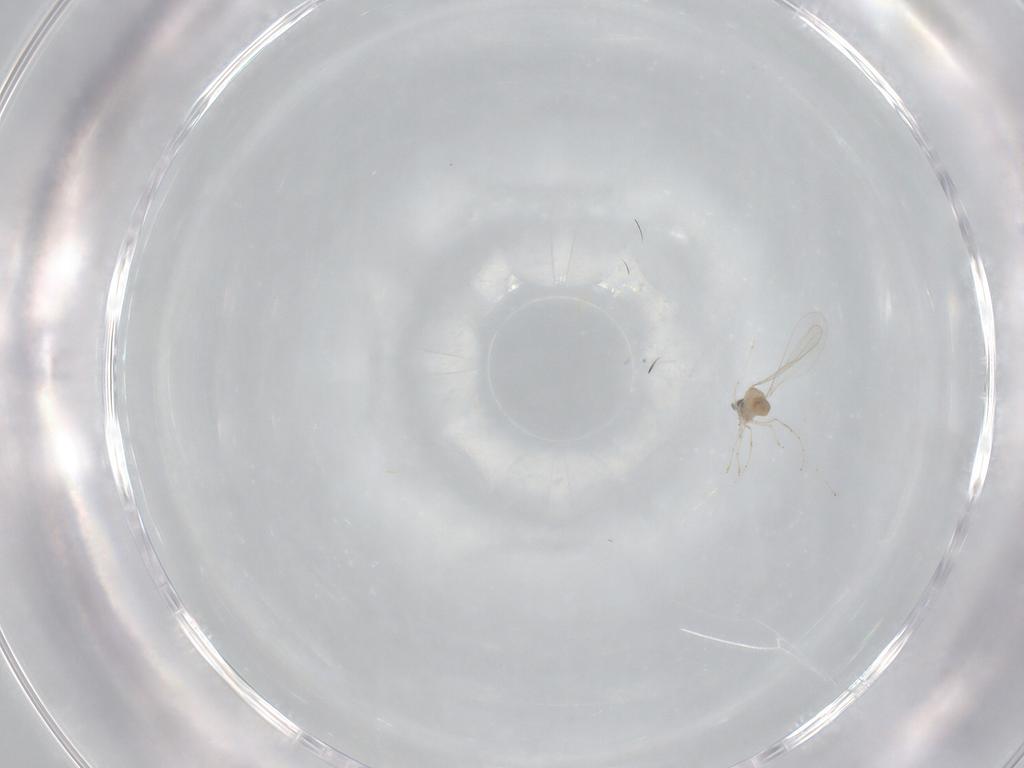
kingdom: Animalia
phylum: Arthropoda
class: Insecta
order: Diptera
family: Cecidomyiidae
